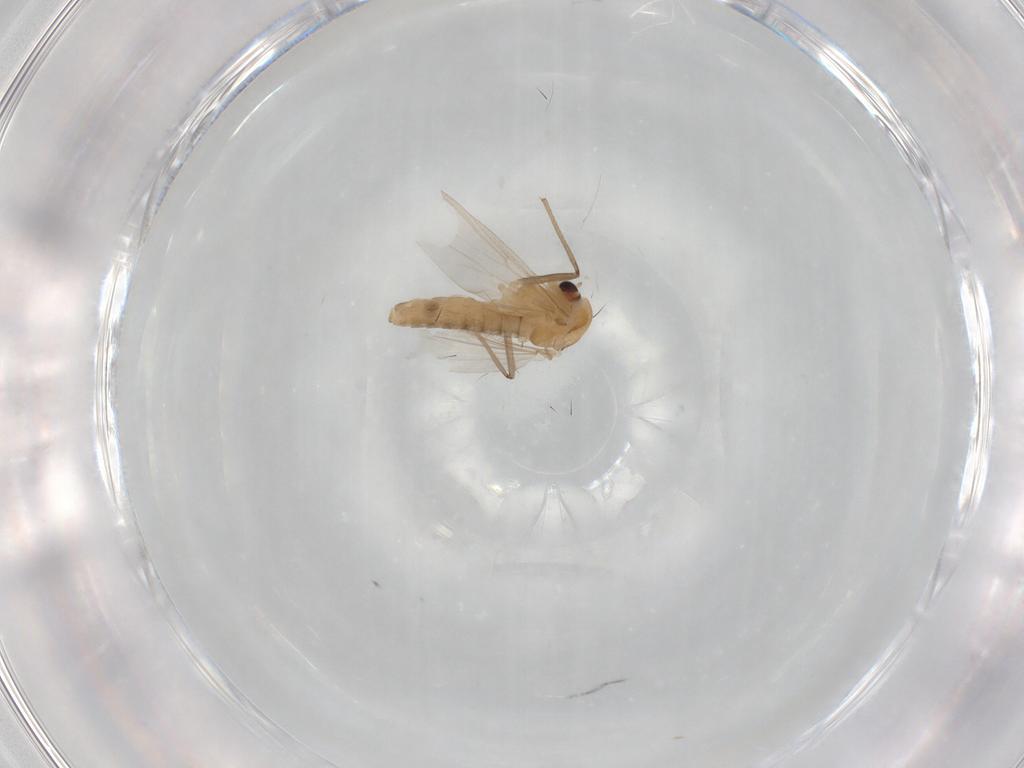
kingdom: Animalia
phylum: Arthropoda
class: Insecta
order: Diptera
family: Chironomidae
